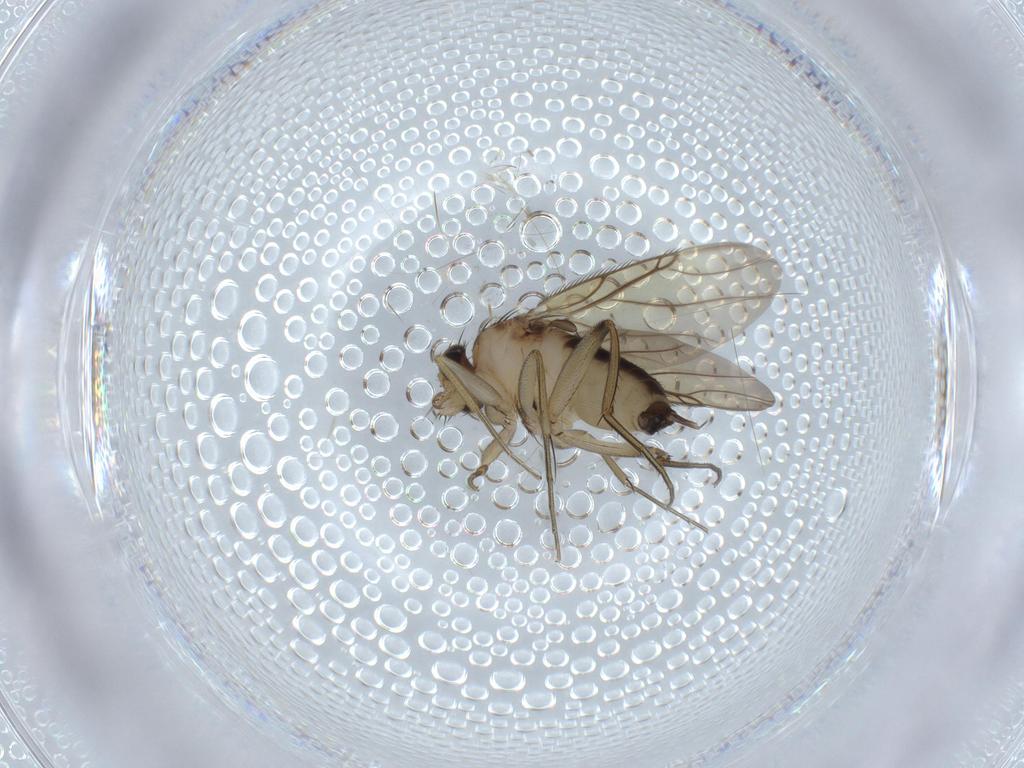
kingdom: Animalia
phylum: Arthropoda
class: Insecta
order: Diptera
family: Phoridae
